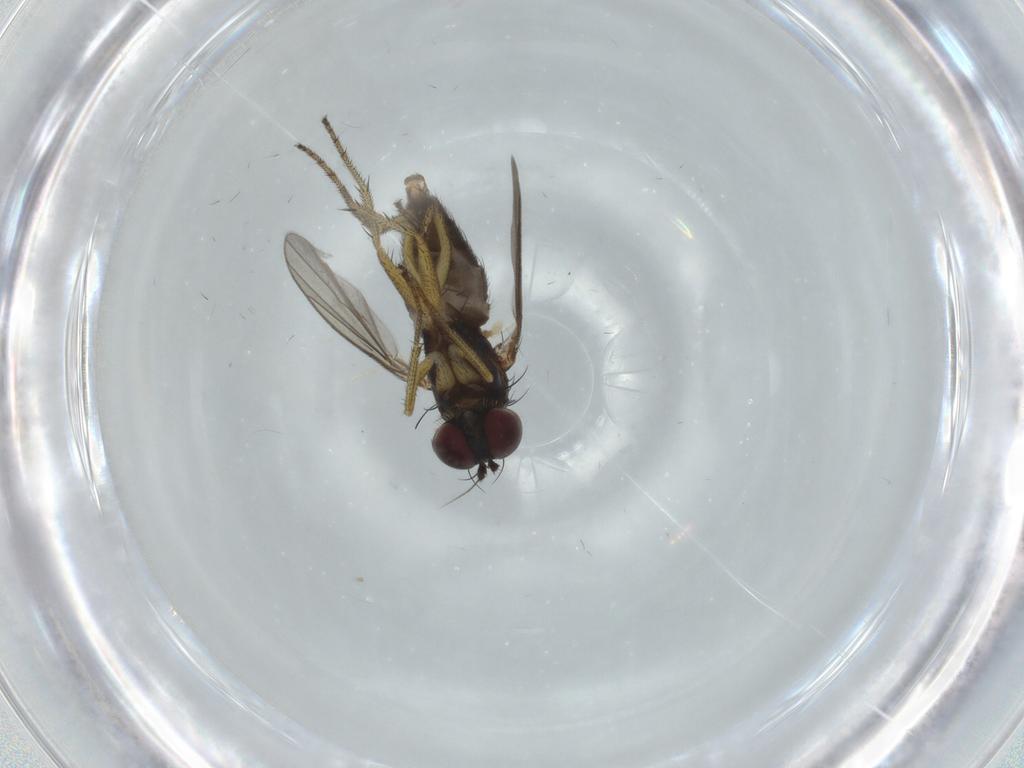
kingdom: Animalia
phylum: Arthropoda
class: Insecta
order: Diptera
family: Dolichopodidae
